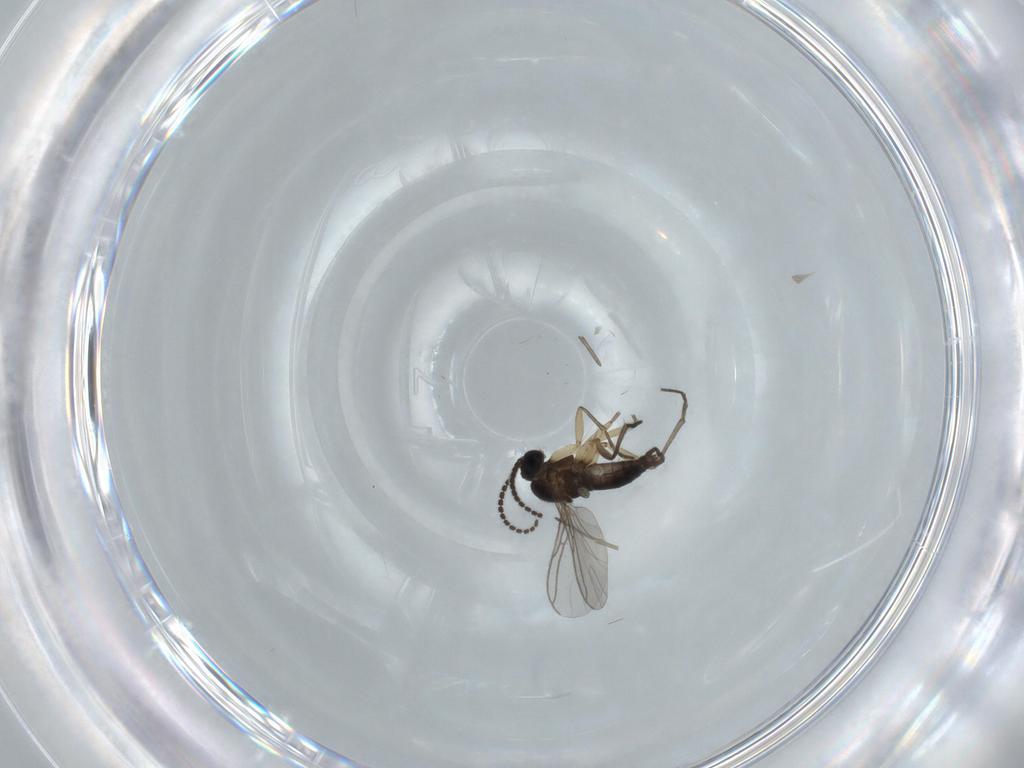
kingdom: Animalia
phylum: Arthropoda
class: Insecta
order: Diptera
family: Sciaridae
